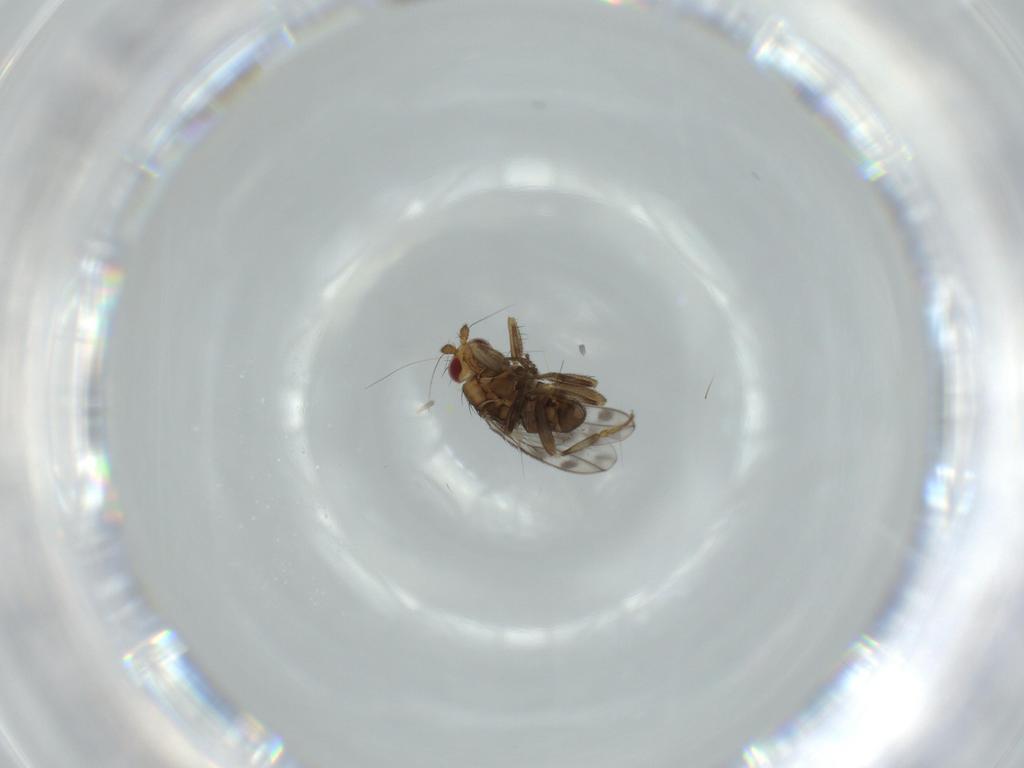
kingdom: Animalia
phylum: Arthropoda
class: Insecta
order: Diptera
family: Sphaeroceridae
